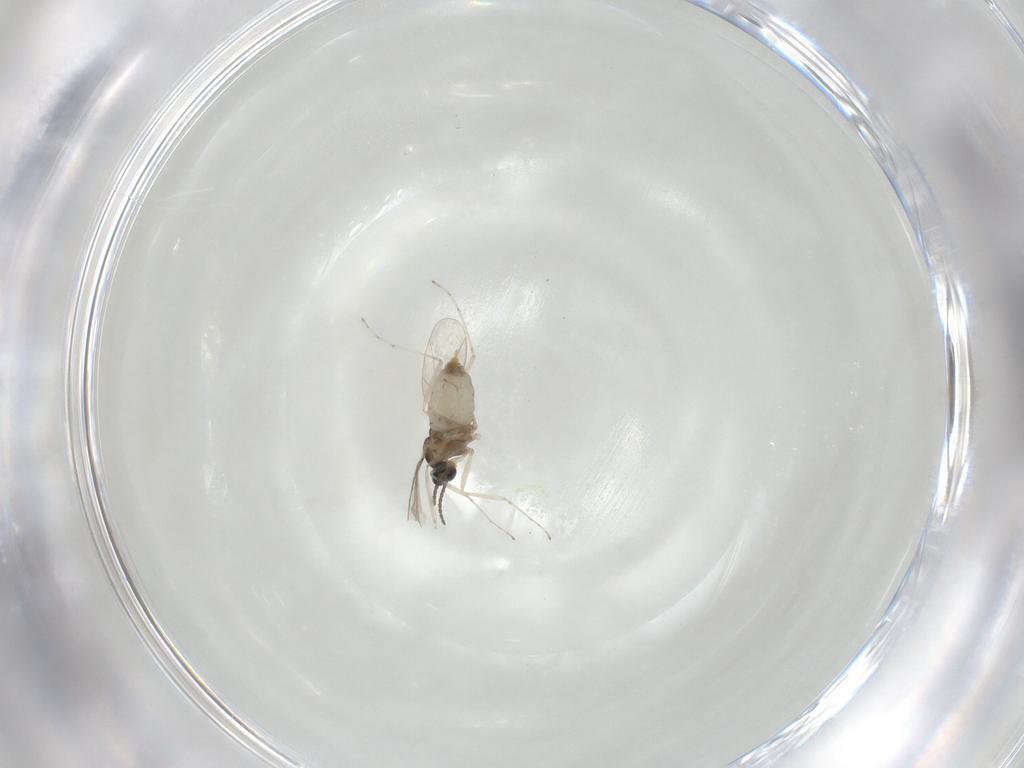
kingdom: Animalia
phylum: Arthropoda
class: Insecta
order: Diptera
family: Cecidomyiidae
